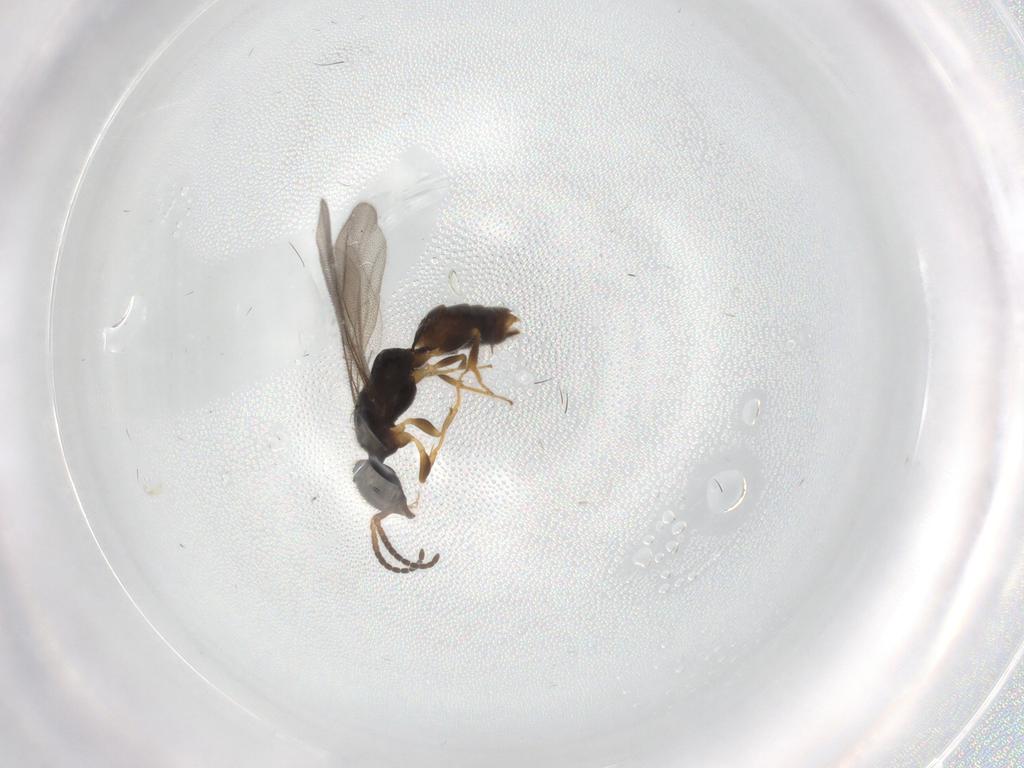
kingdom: Animalia
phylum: Arthropoda
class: Insecta
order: Hymenoptera
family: Bethylidae
